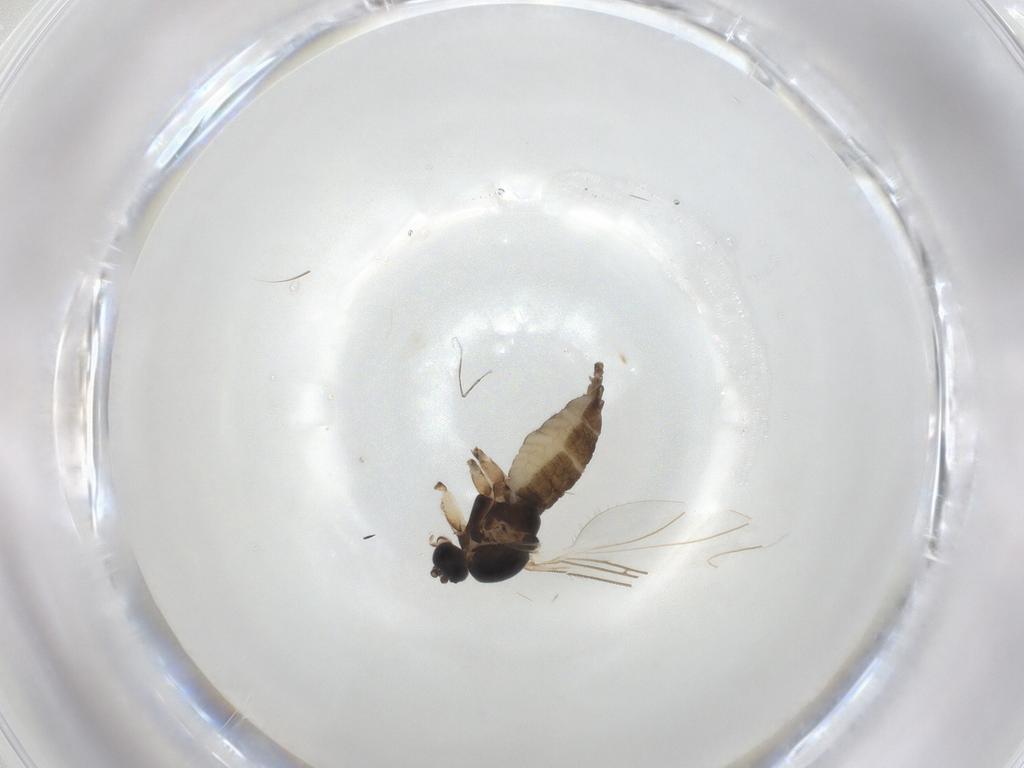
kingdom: Animalia
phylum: Arthropoda
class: Insecta
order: Diptera
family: Sciaridae
